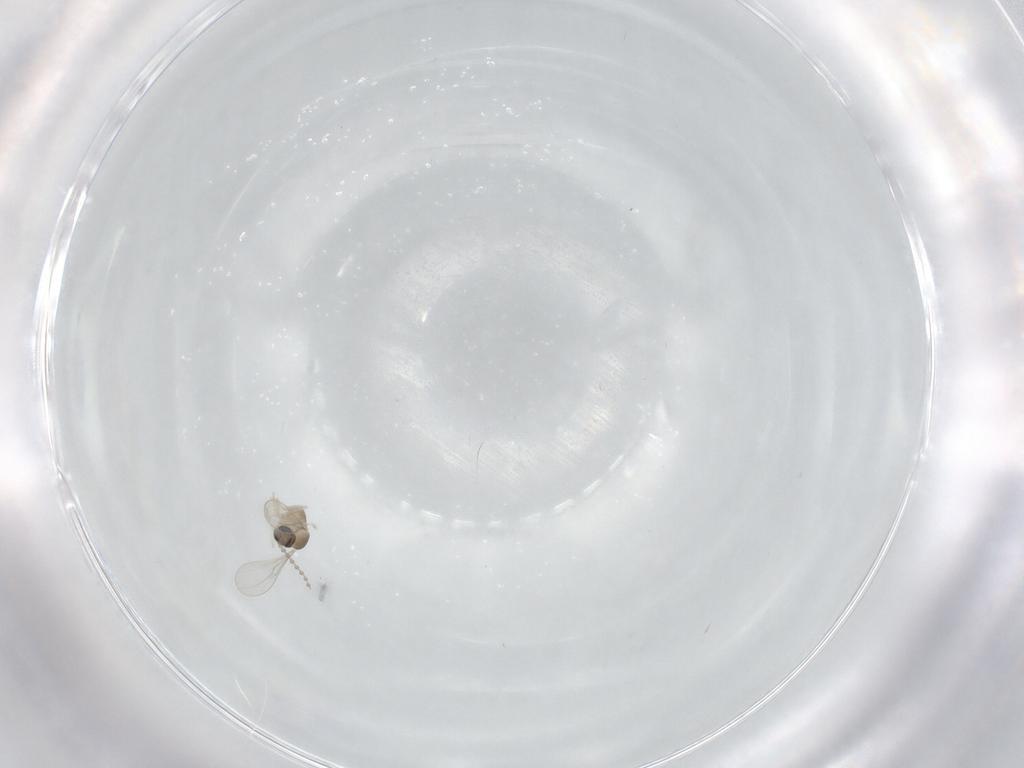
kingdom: Animalia
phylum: Arthropoda
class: Insecta
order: Diptera
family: Cecidomyiidae
